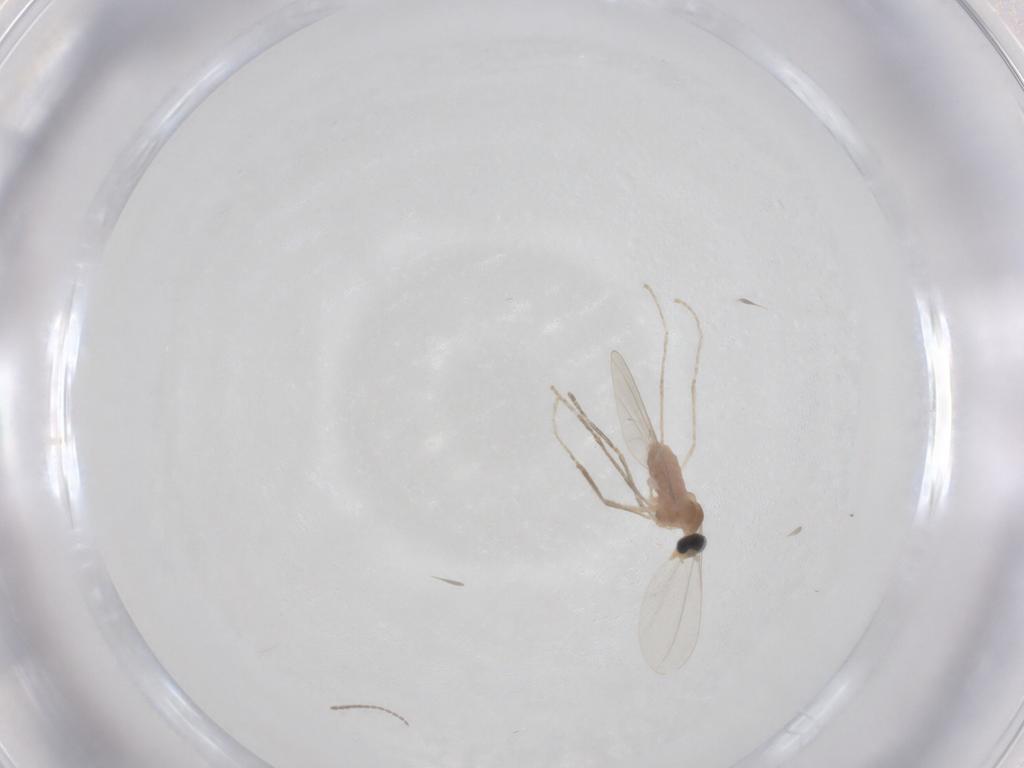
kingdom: Animalia
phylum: Arthropoda
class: Insecta
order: Diptera
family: Cecidomyiidae
